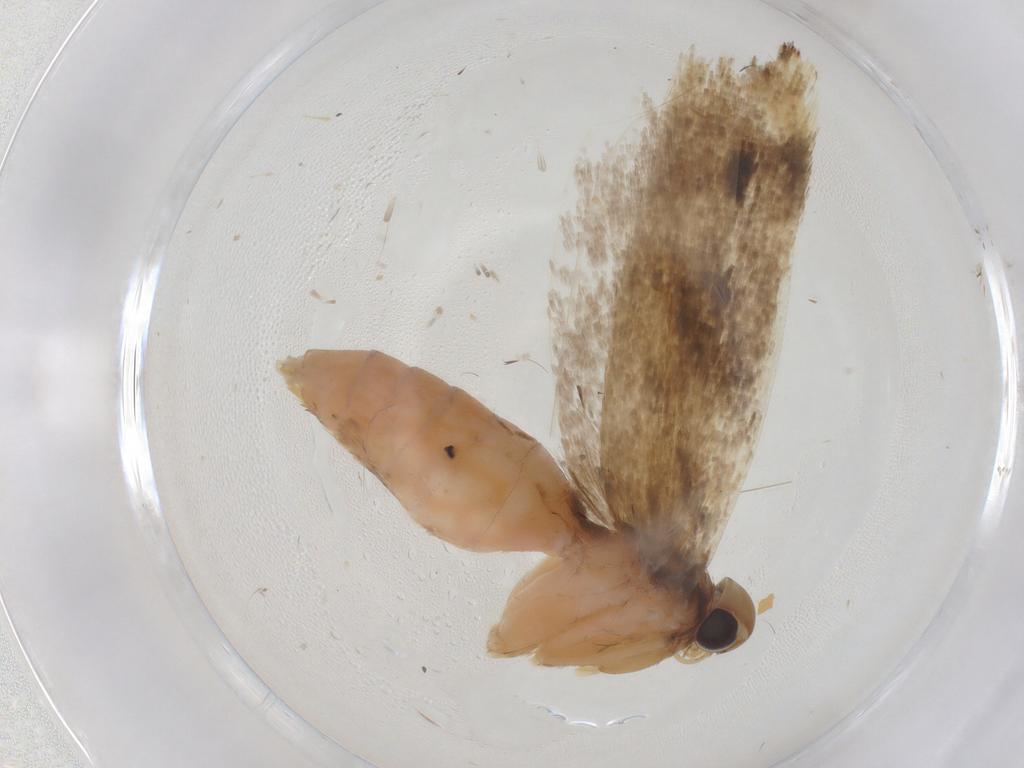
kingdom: Animalia
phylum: Arthropoda
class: Insecta
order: Lepidoptera
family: Gelechiidae
